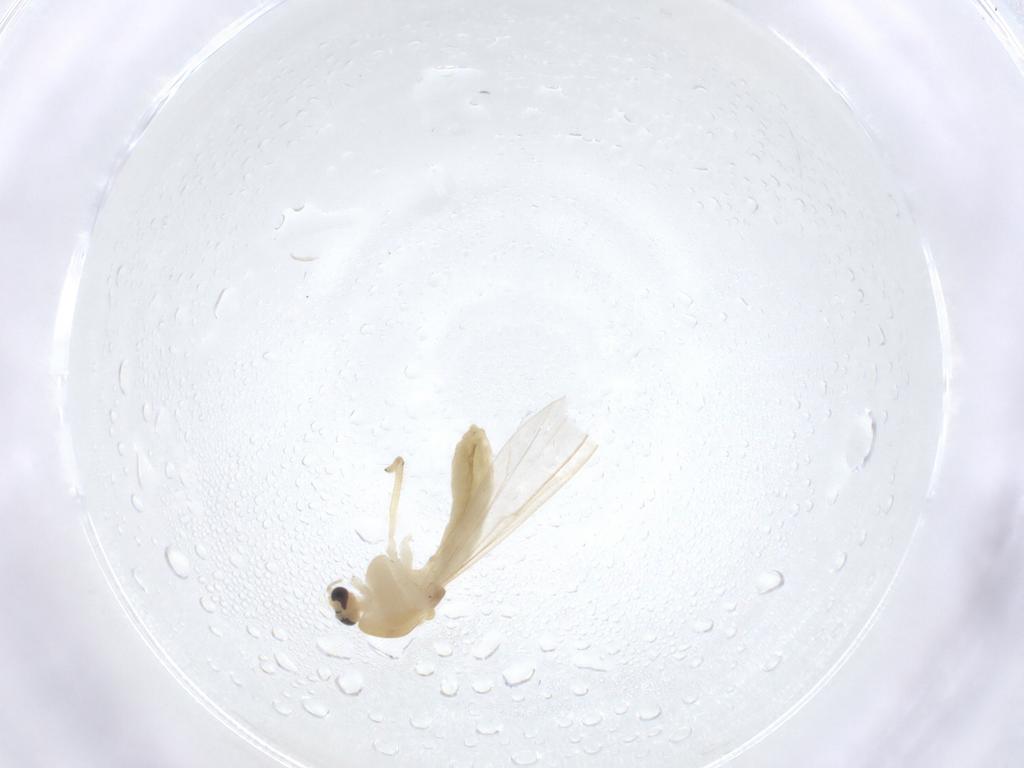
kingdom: Animalia
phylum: Arthropoda
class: Insecta
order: Diptera
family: Chironomidae
